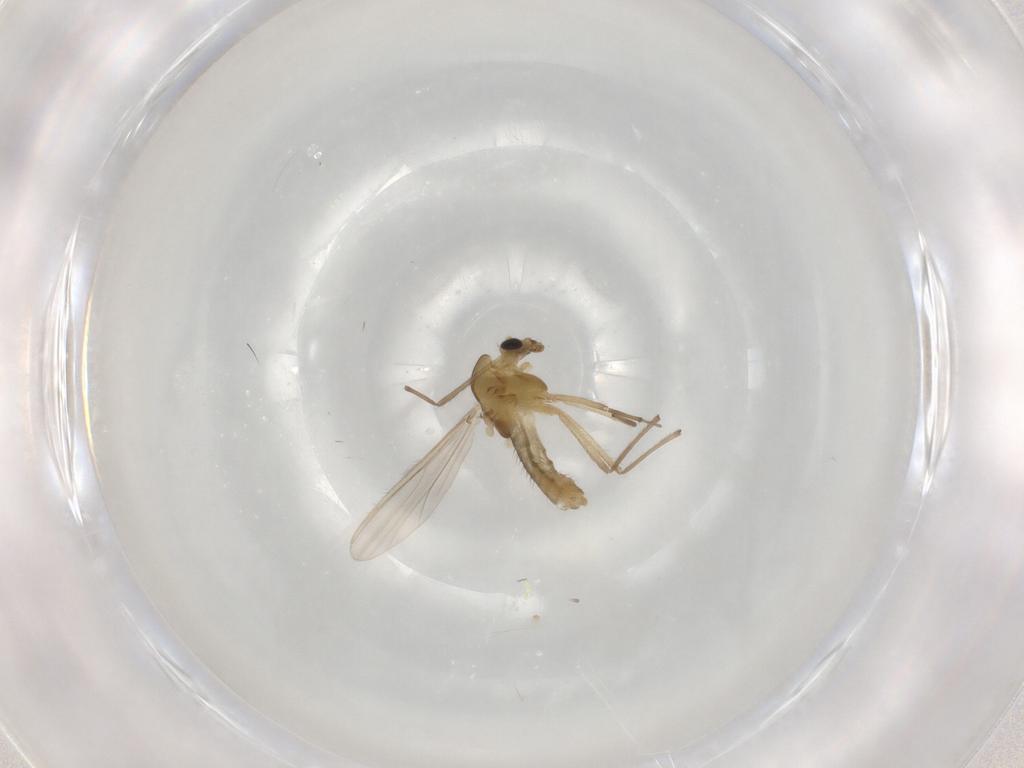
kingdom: Animalia
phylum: Arthropoda
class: Insecta
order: Diptera
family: Chironomidae
